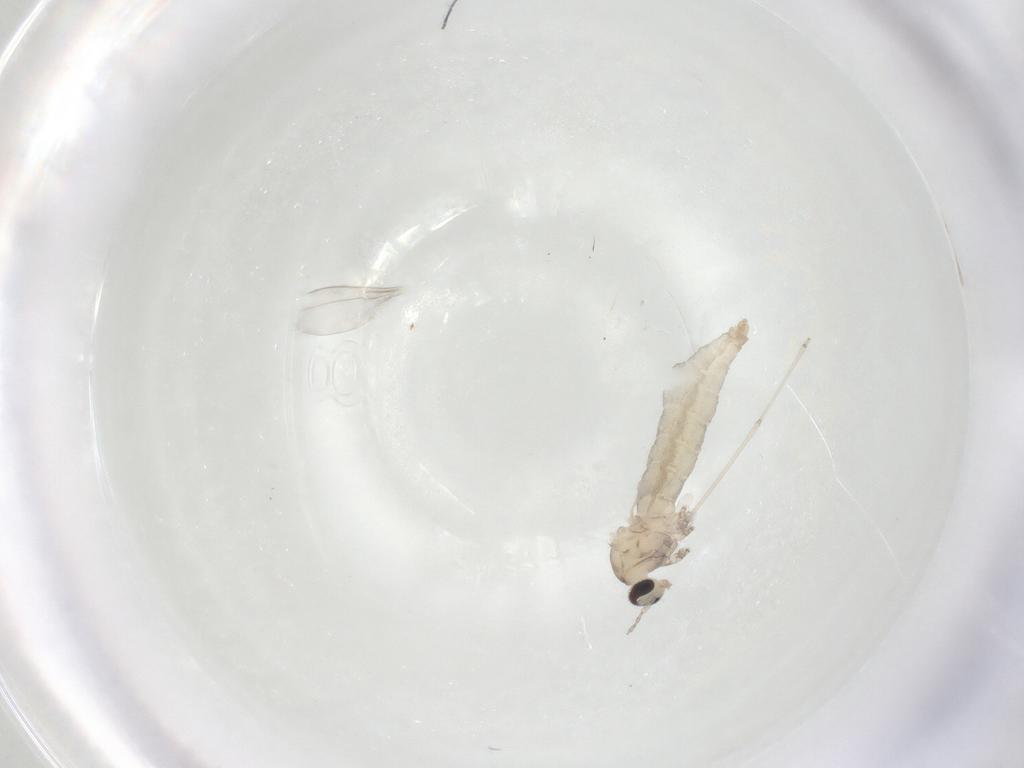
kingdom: Animalia
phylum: Arthropoda
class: Insecta
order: Diptera
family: Cecidomyiidae
